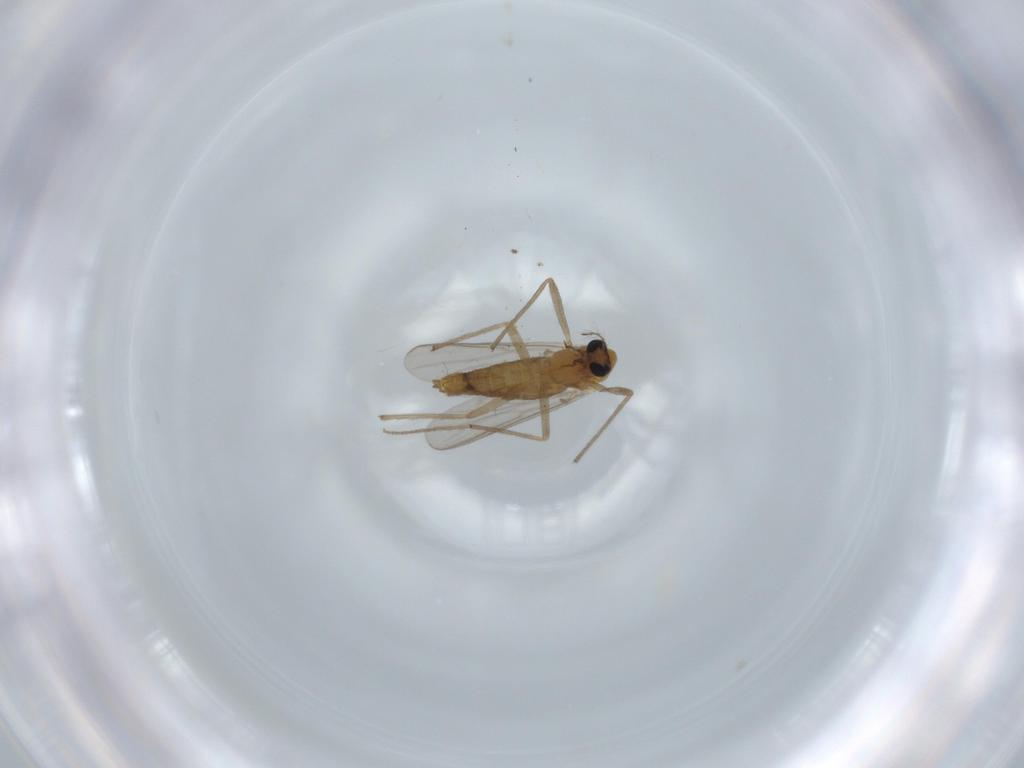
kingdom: Animalia
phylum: Arthropoda
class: Insecta
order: Diptera
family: Chironomidae
